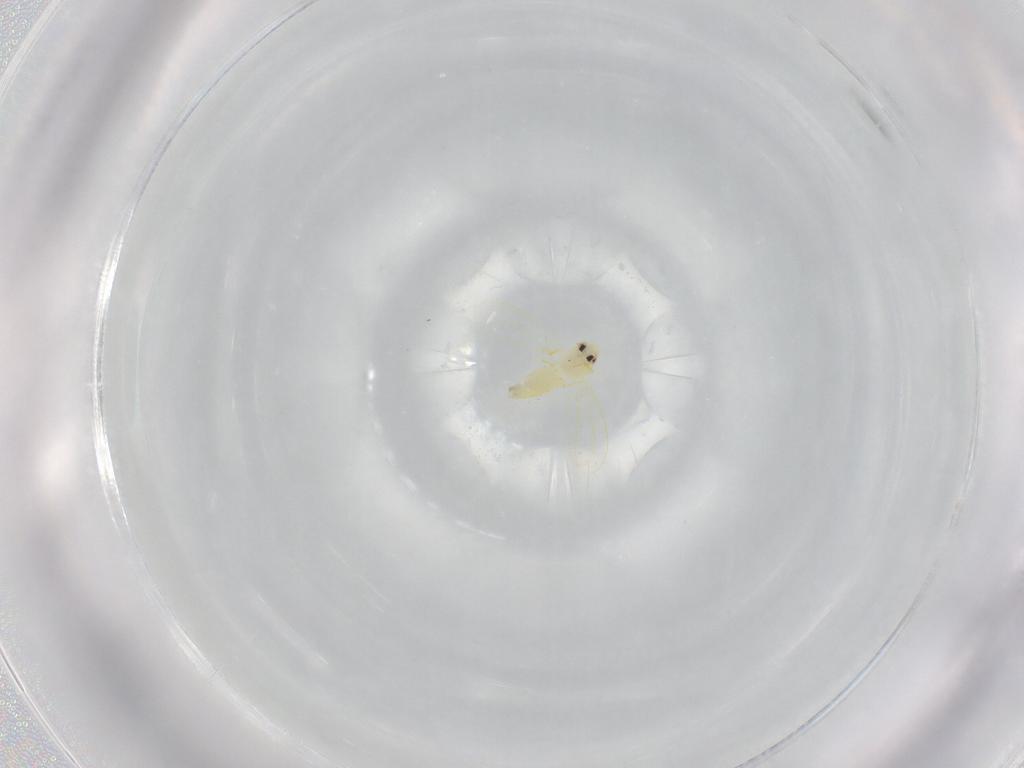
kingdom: Animalia
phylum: Arthropoda
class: Insecta
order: Hemiptera
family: Aleyrodidae
